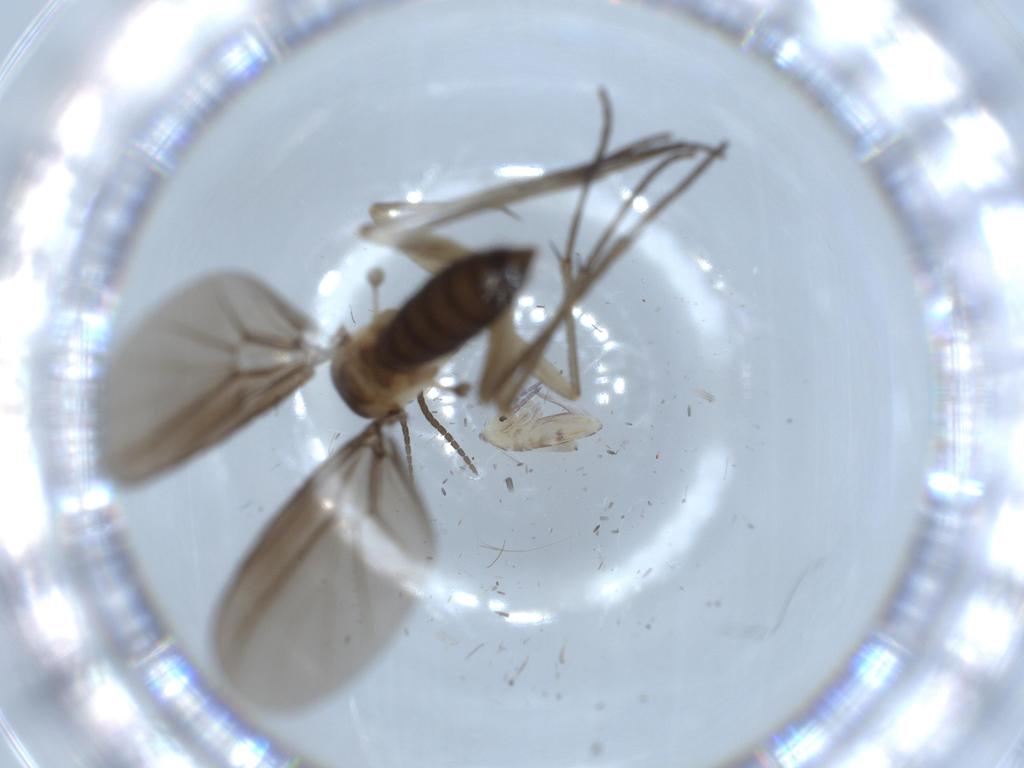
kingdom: Animalia
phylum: Arthropoda
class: Insecta
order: Diptera
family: Diadocidiidae
